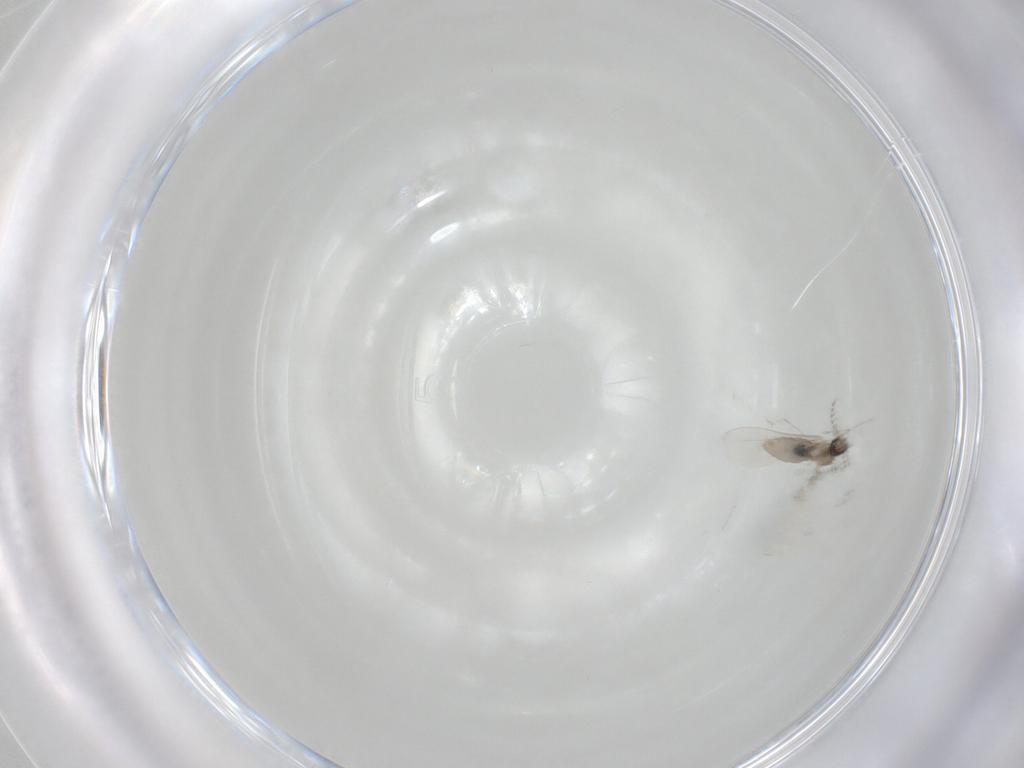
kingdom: Animalia
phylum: Arthropoda
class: Insecta
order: Diptera
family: Cecidomyiidae
